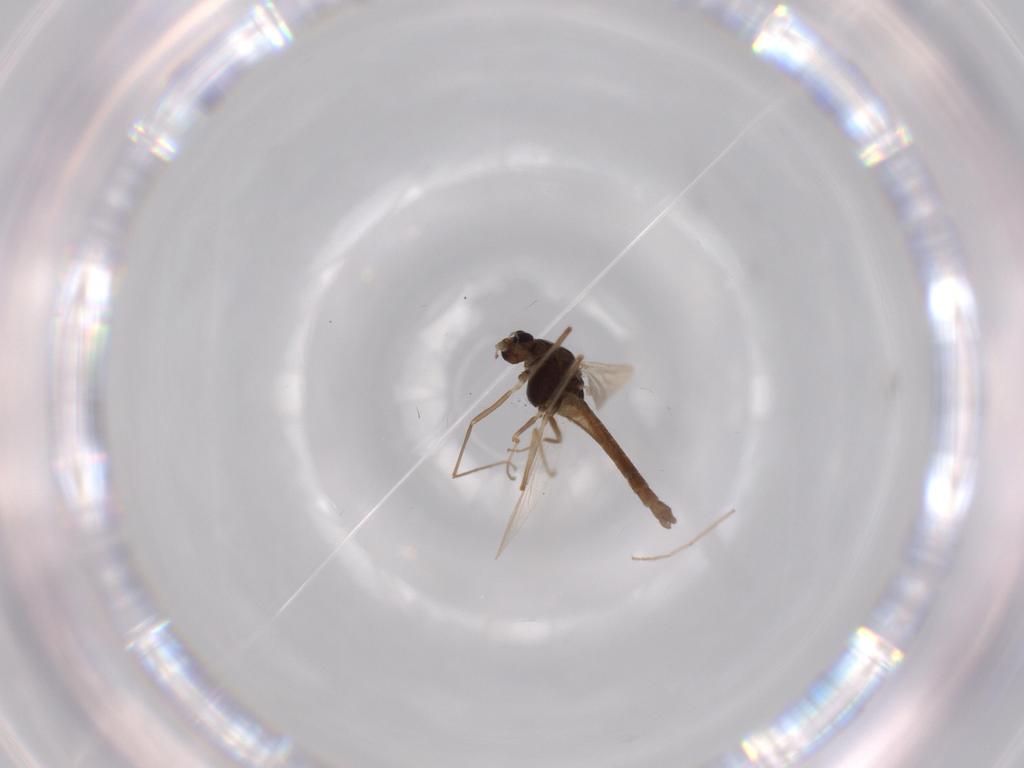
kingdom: Animalia
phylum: Arthropoda
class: Insecta
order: Diptera
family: Chironomidae
